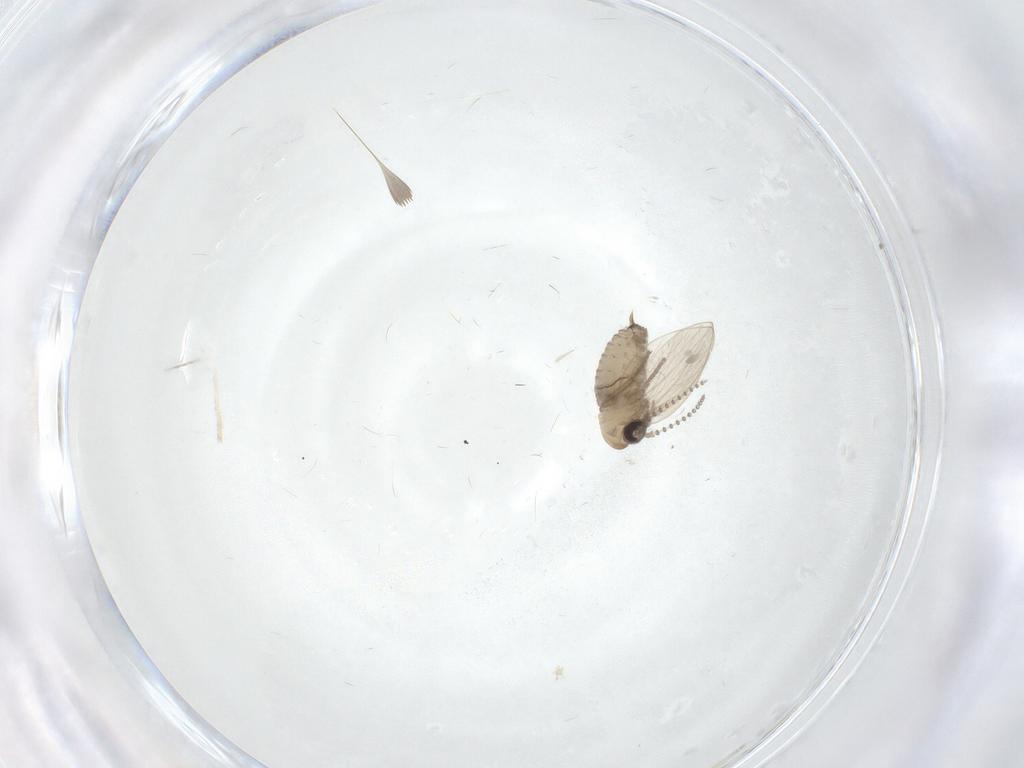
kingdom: Animalia
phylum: Arthropoda
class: Insecta
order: Diptera
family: Psychodidae
